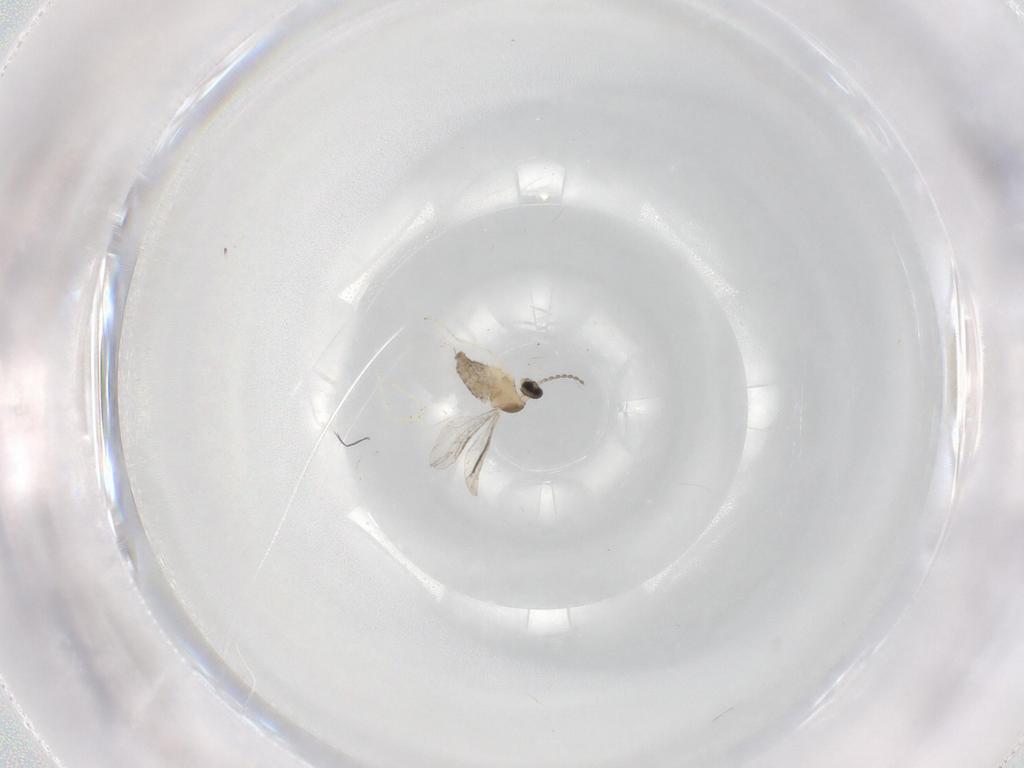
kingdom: Animalia
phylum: Arthropoda
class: Insecta
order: Diptera
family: Cecidomyiidae
